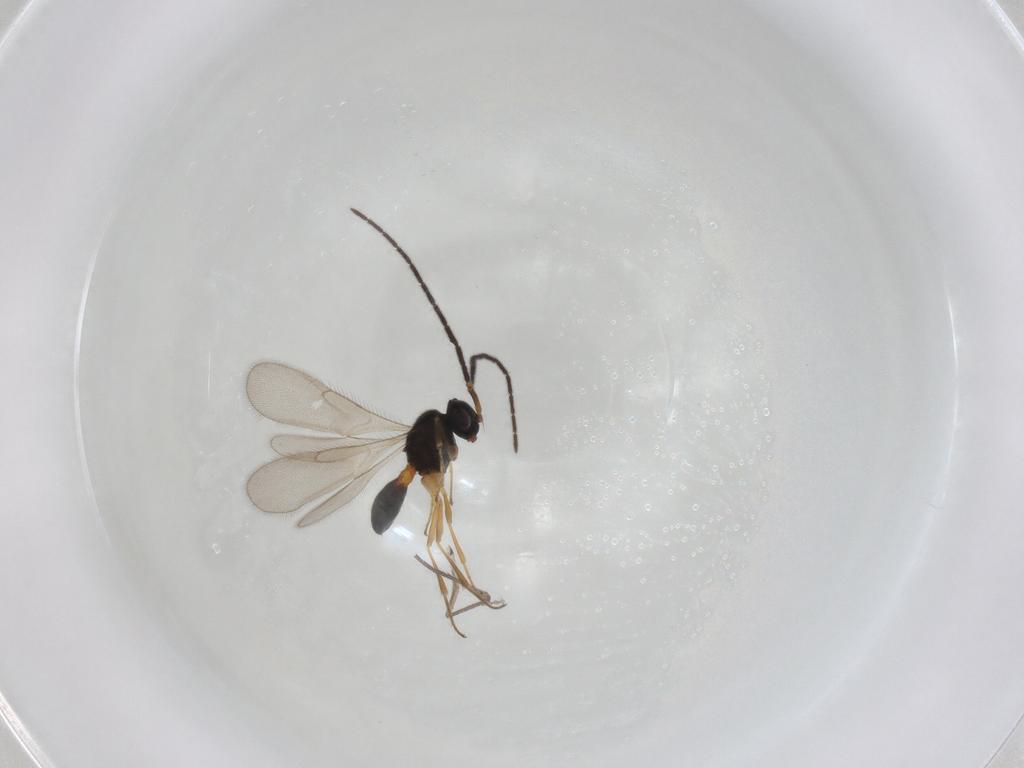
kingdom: Animalia
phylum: Arthropoda
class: Insecta
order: Hymenoptera
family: Scelionidae
